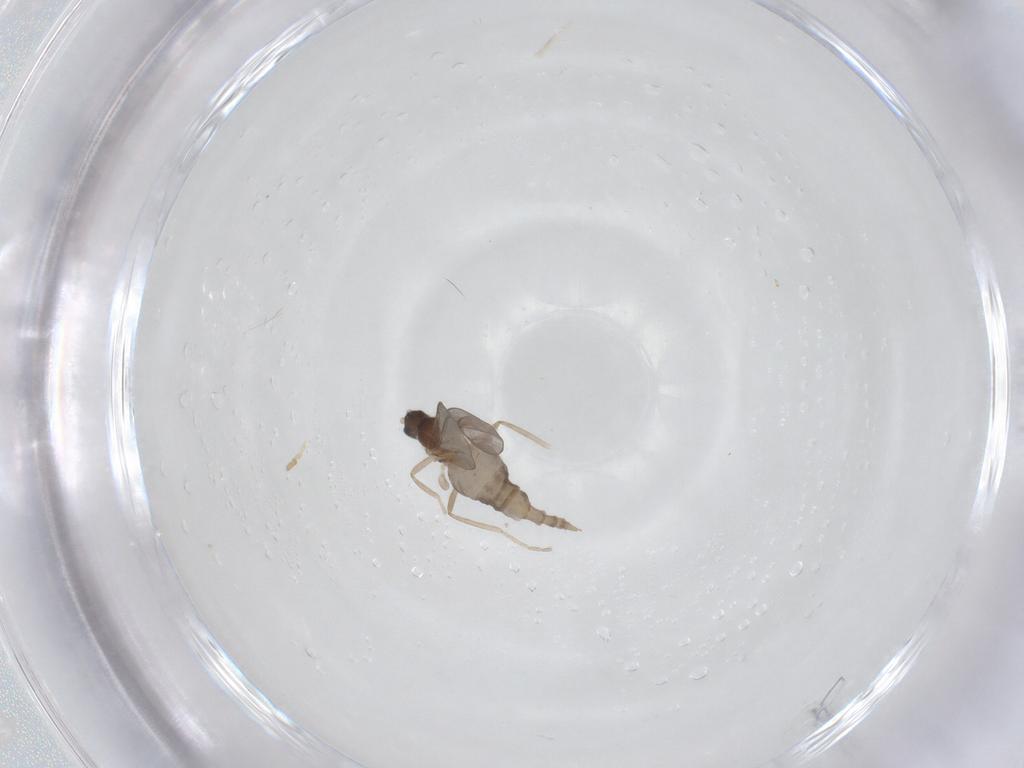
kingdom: Animalia
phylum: Arthropoda
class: Insecta
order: Diptera
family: Cecidomyiidae
